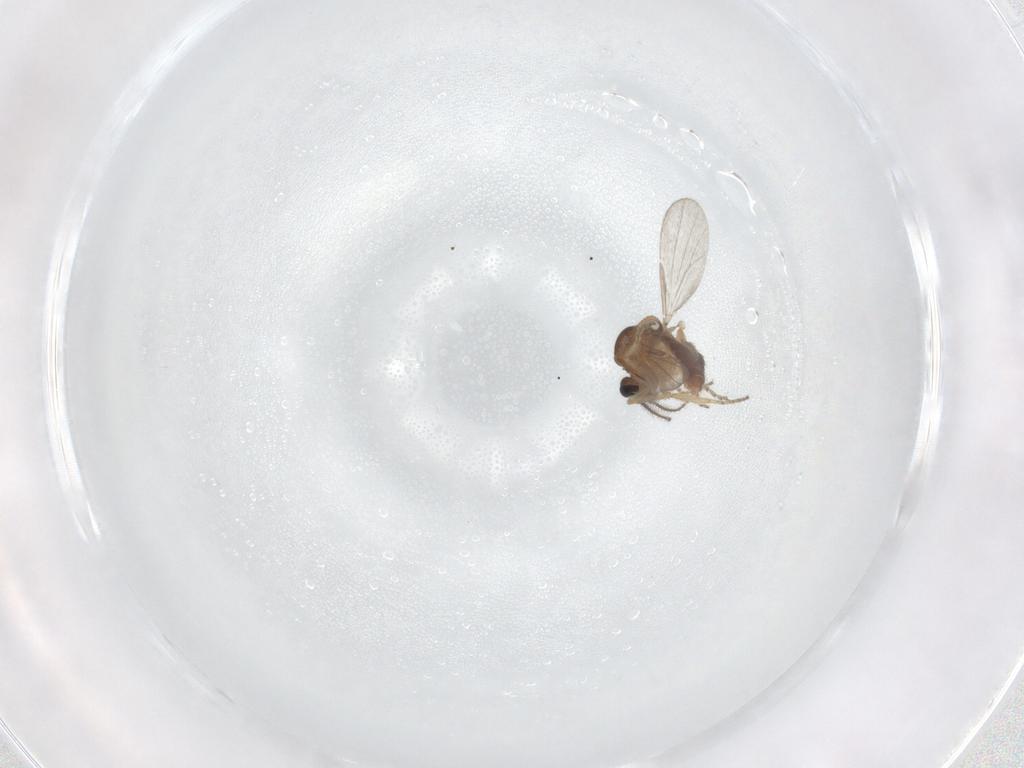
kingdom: Animalia
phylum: Arthropoda
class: Insecta
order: Diptera
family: Ceratopogonidae
